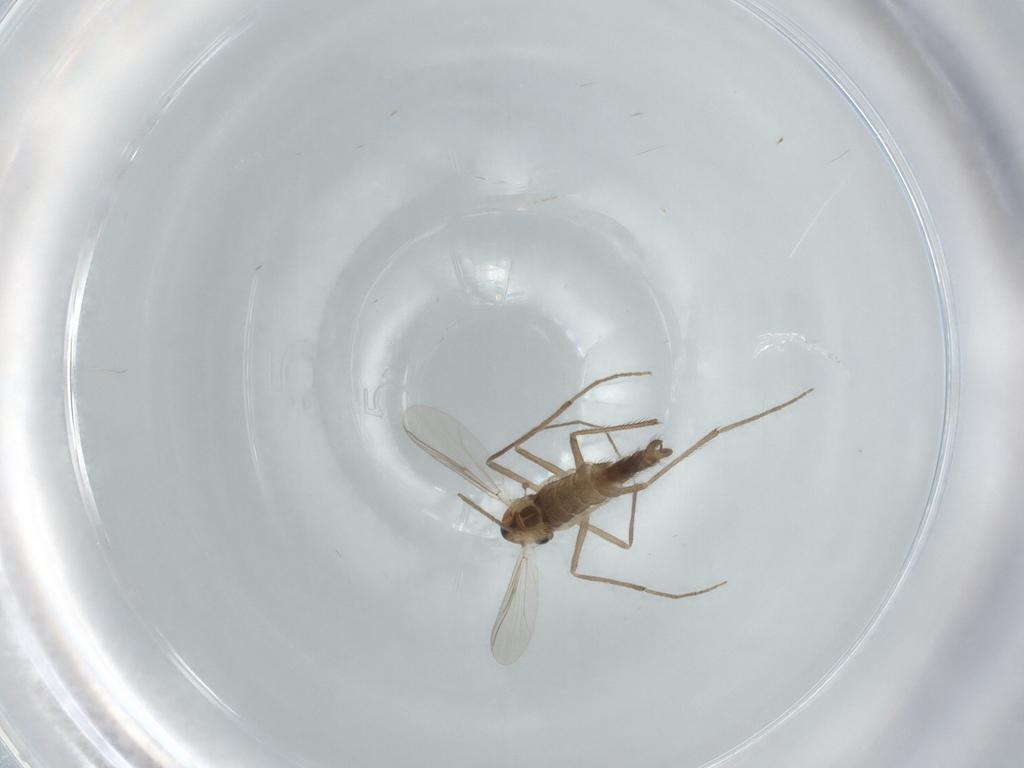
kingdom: Animalia
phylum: Arthropoda
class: Insecta
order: Diptera
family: Chironomidae
